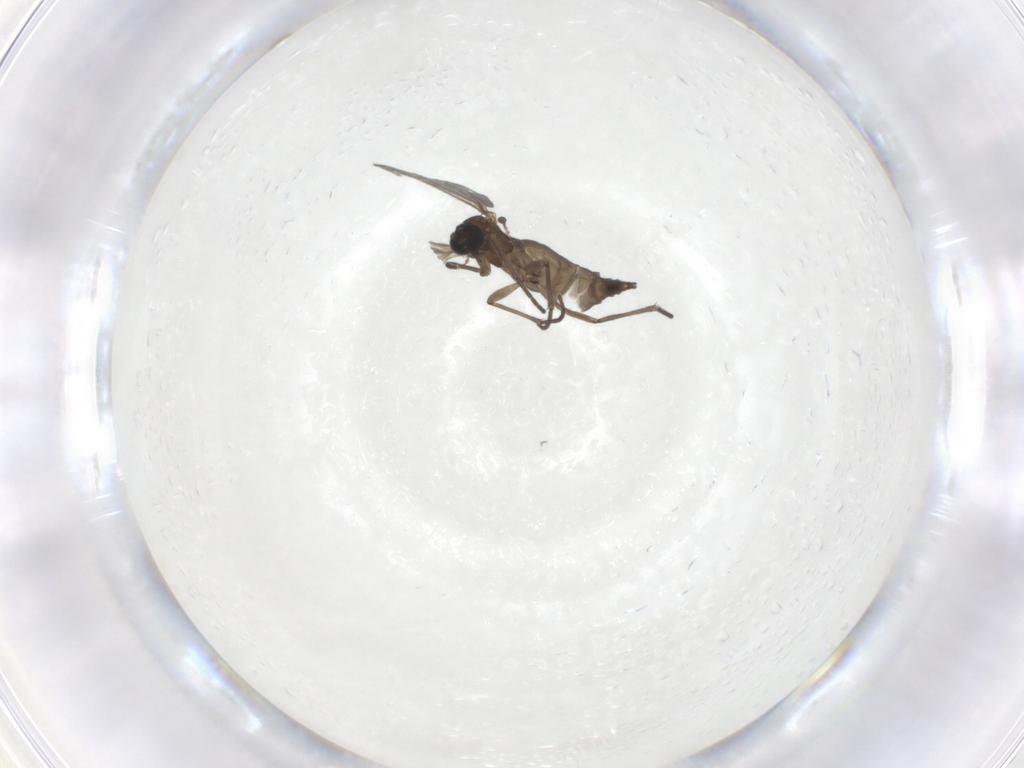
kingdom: Animalia
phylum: Arthropoda
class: Insecta
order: Diptera
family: Sciaridae
